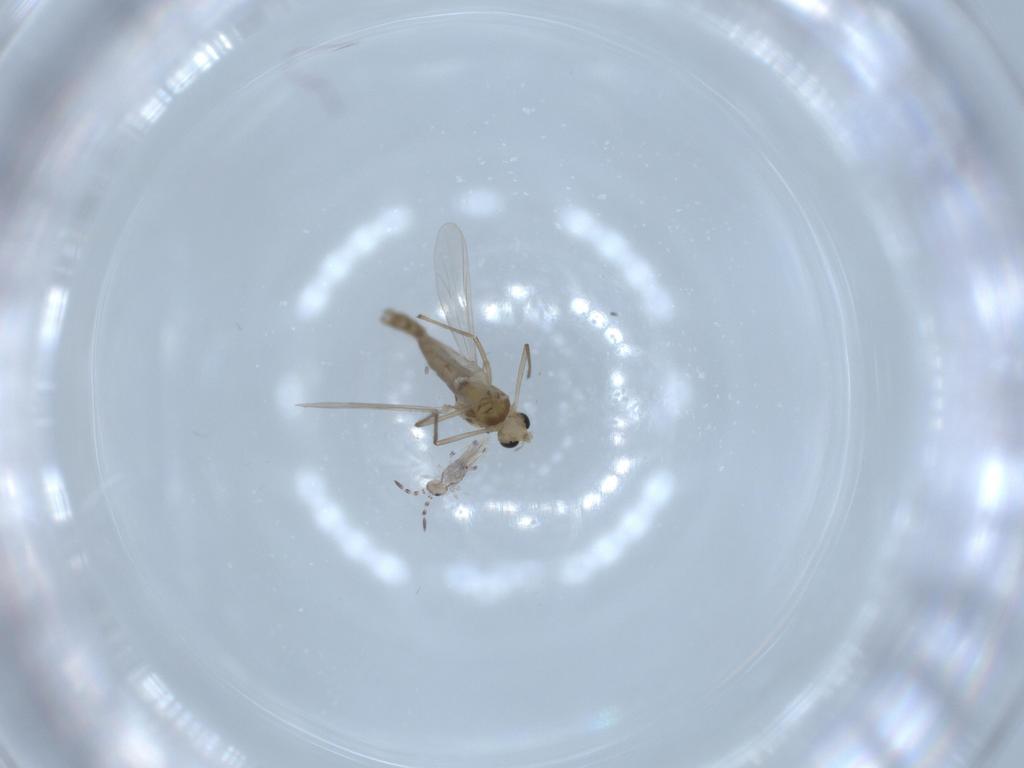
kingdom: Animalia
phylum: Arthropoda
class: Insecta
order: Diptera
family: Chironomidae
